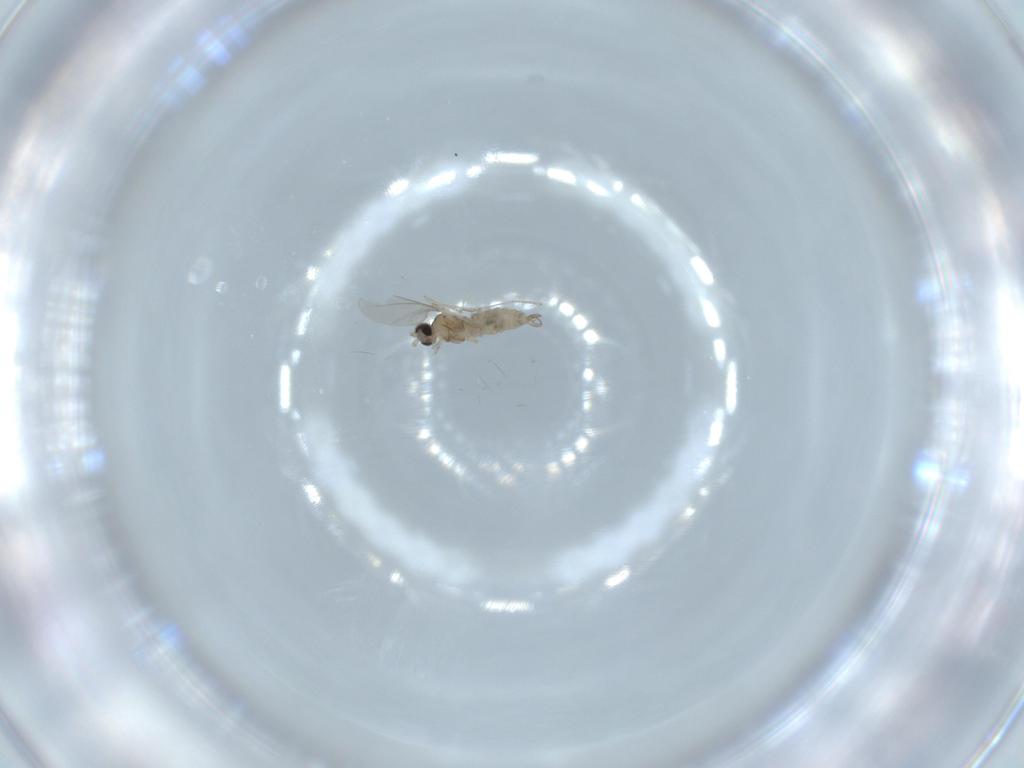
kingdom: Animalia
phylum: Arthropoda
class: Insecta
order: Diptera
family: Cecidomyiidae
